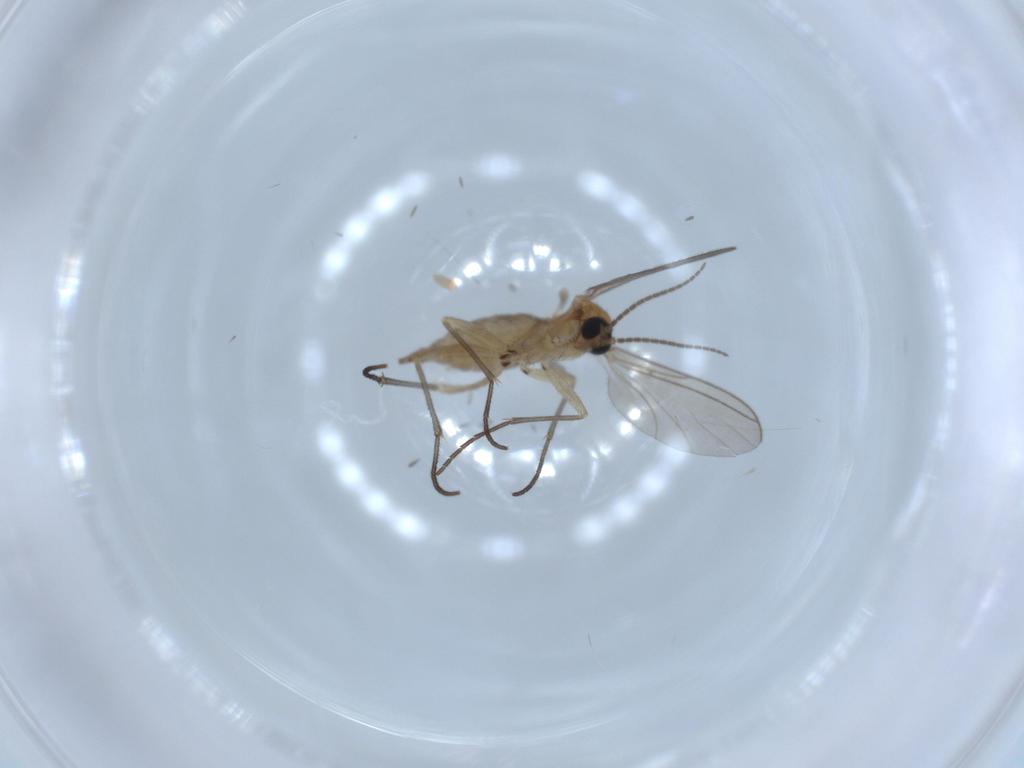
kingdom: Animalia
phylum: Arthropoda
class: Insecta
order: Diptera
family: Sciaridae
